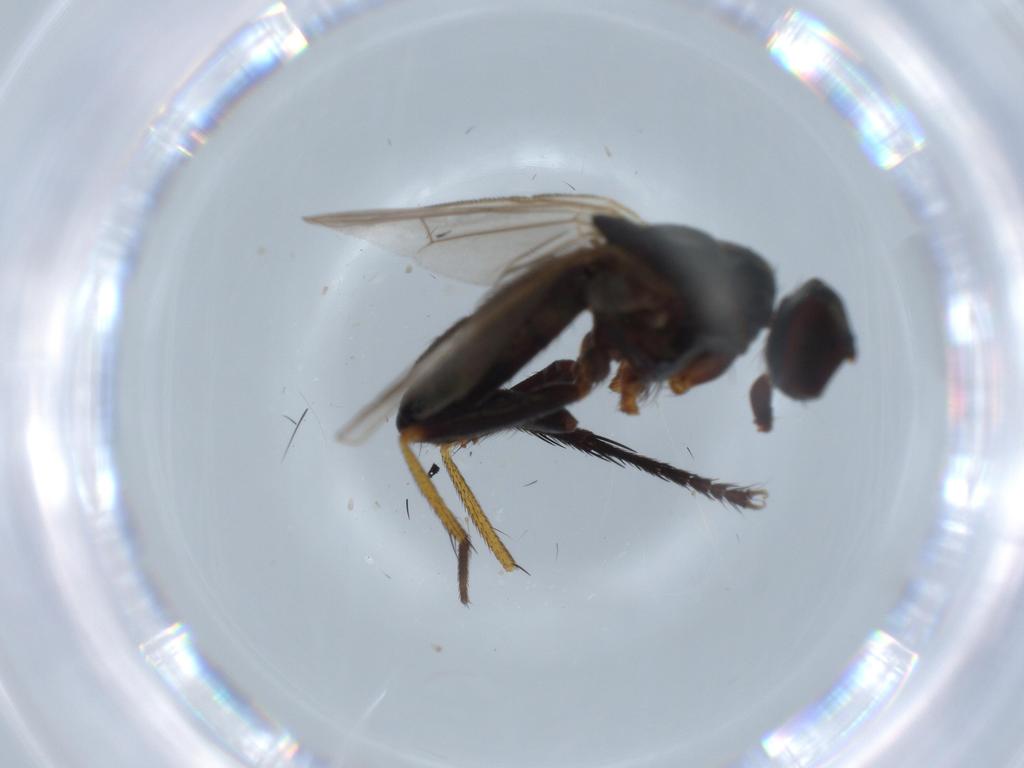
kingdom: Animalia
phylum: Arthropoda
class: Insecta
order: Diptera
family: Sarcophagidae
